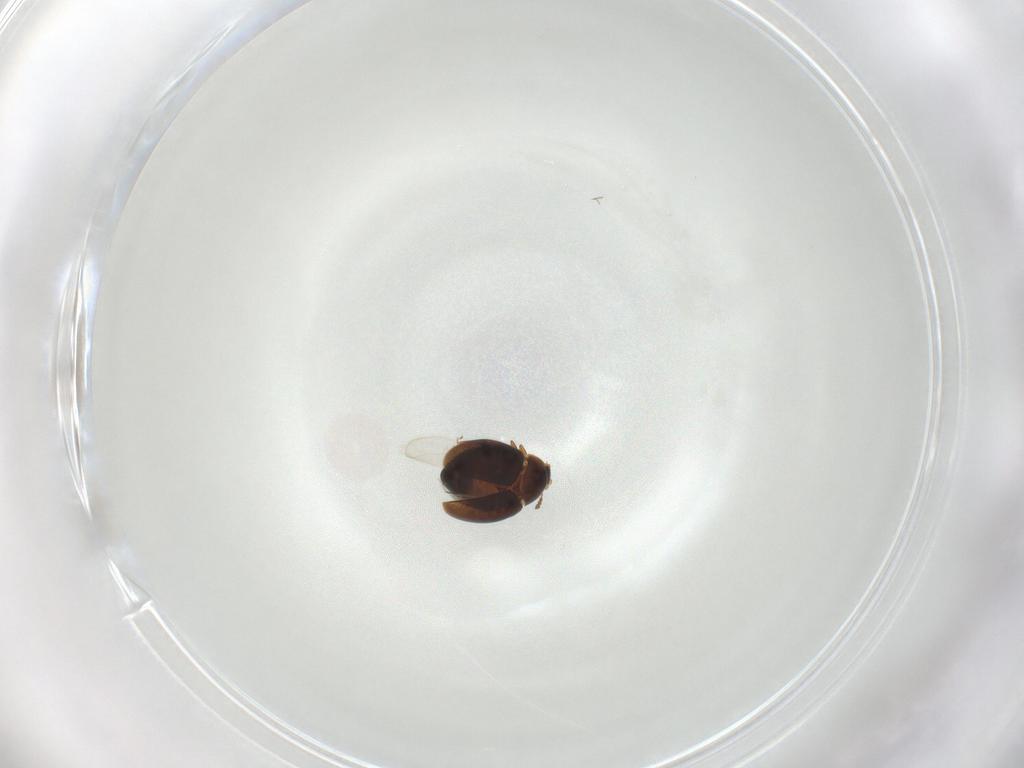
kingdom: Animalia
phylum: Arthropoda
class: Insecta
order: Coleoptera
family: Corylophidae
